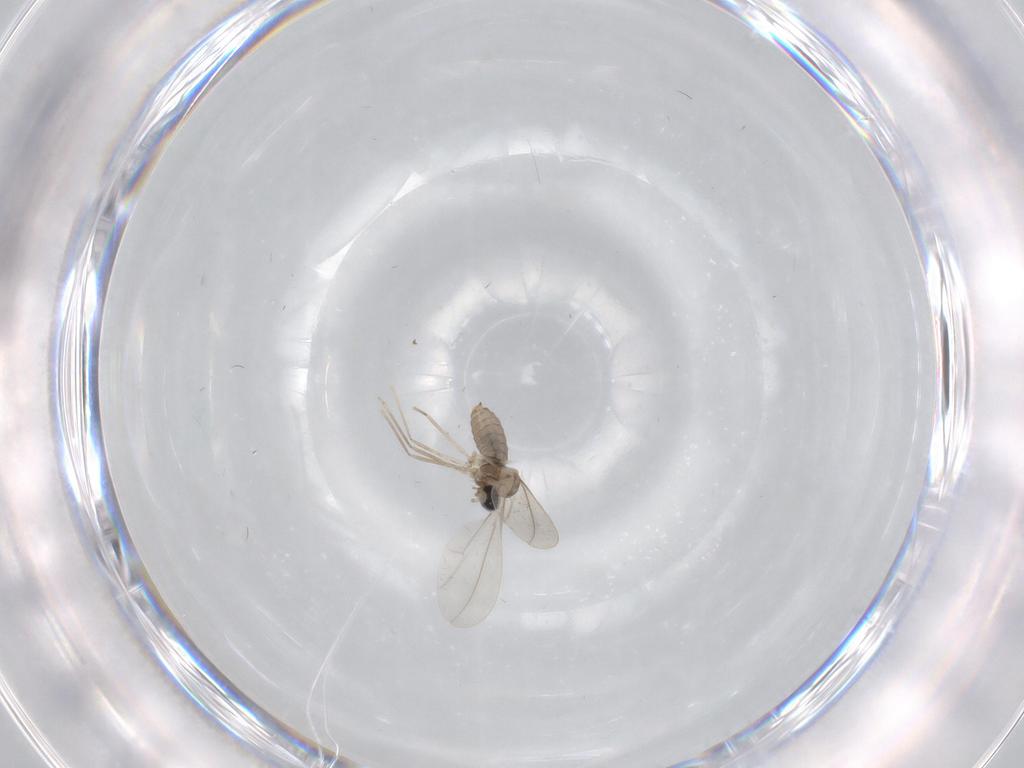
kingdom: Animalia
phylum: Arthropoda
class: Insecta
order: Diptera
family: Cecidomyiidae
